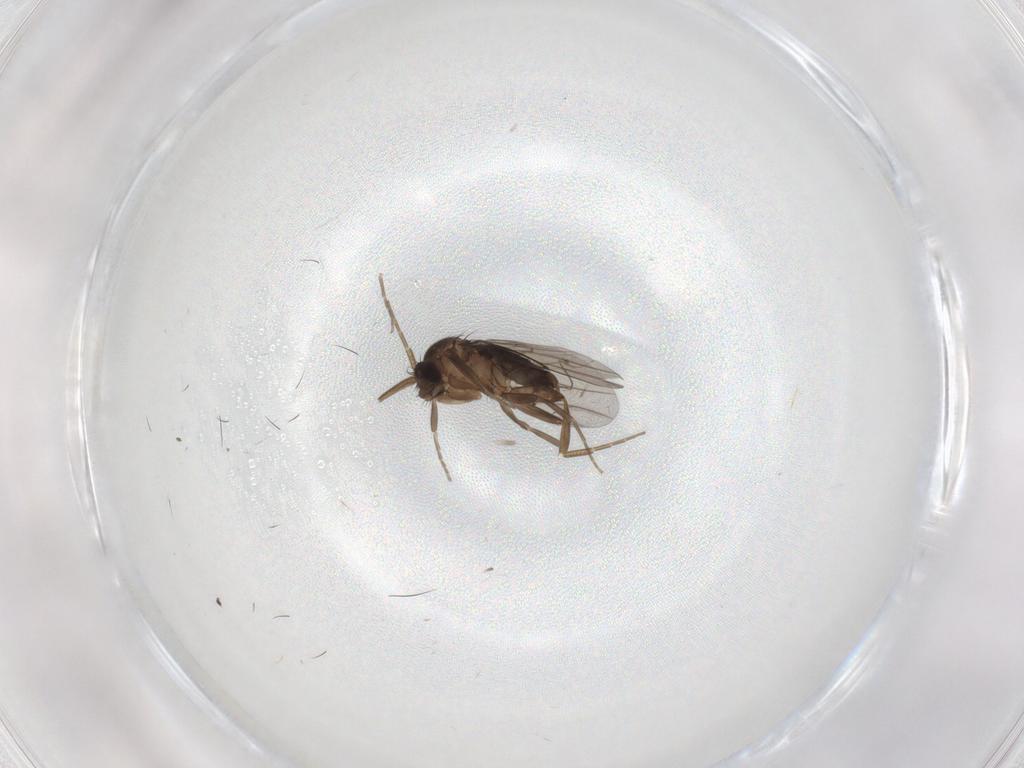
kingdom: Animalia
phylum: Arthropoda
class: Insecta
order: Diptera
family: Phoridae
